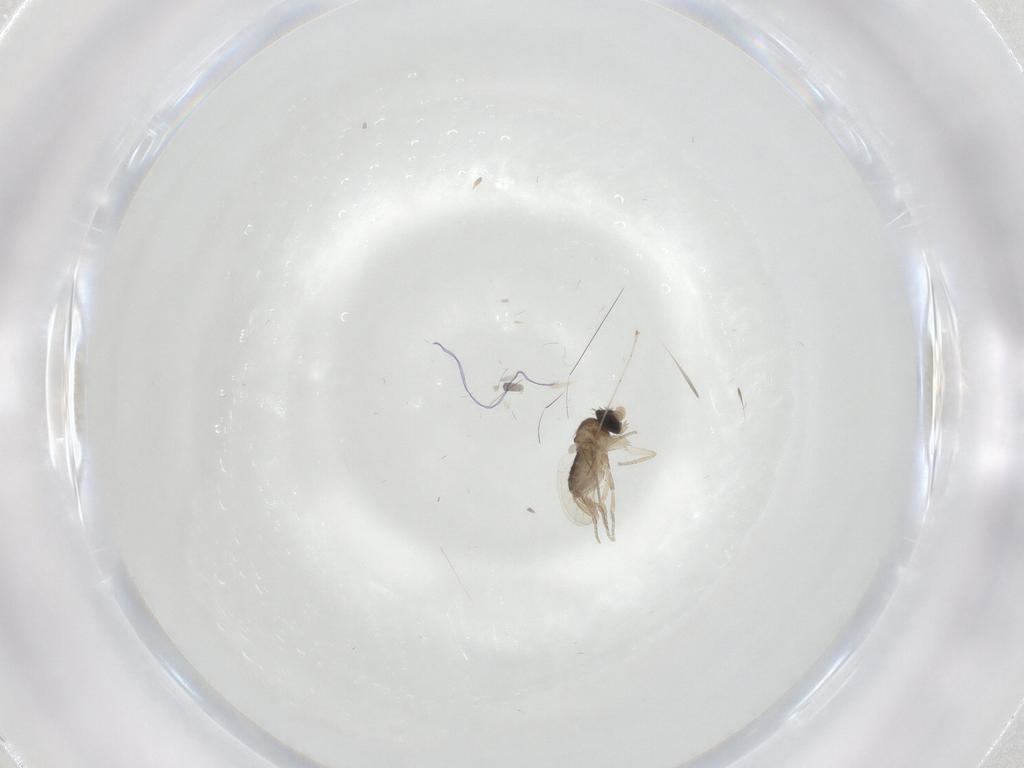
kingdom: Animalia
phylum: Arthropoda
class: Insecta
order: Diptera
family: Cecidomyiidae
